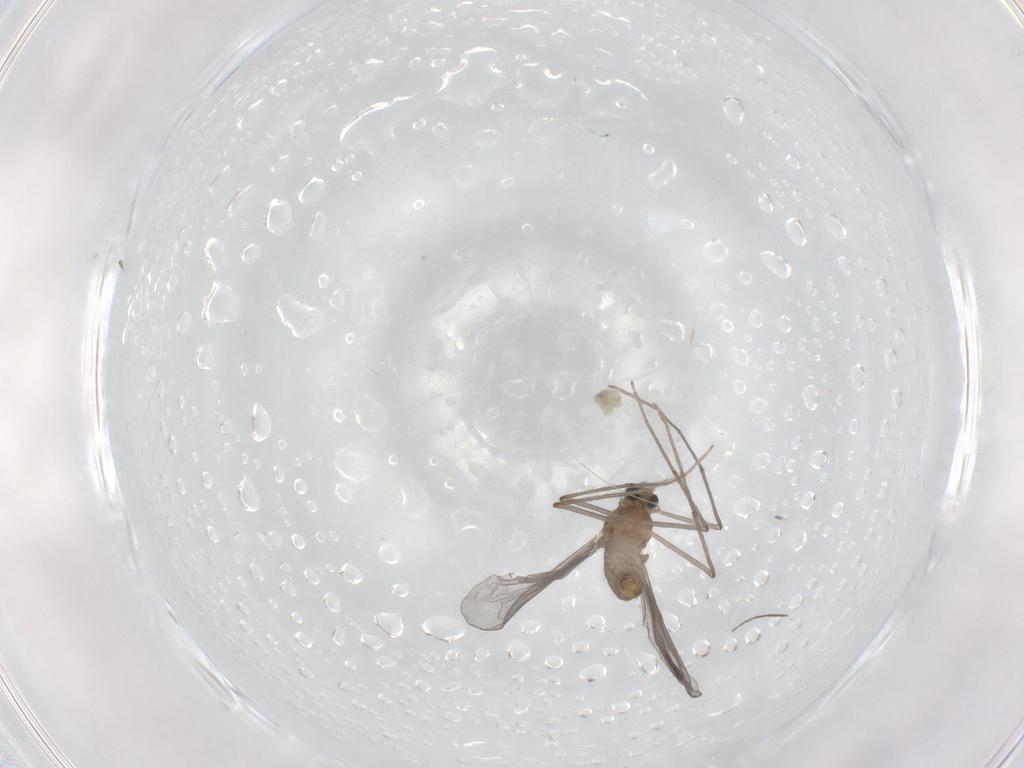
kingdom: Animalia
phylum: Arthropoda
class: Insecta
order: Diptera
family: Chironomidae
